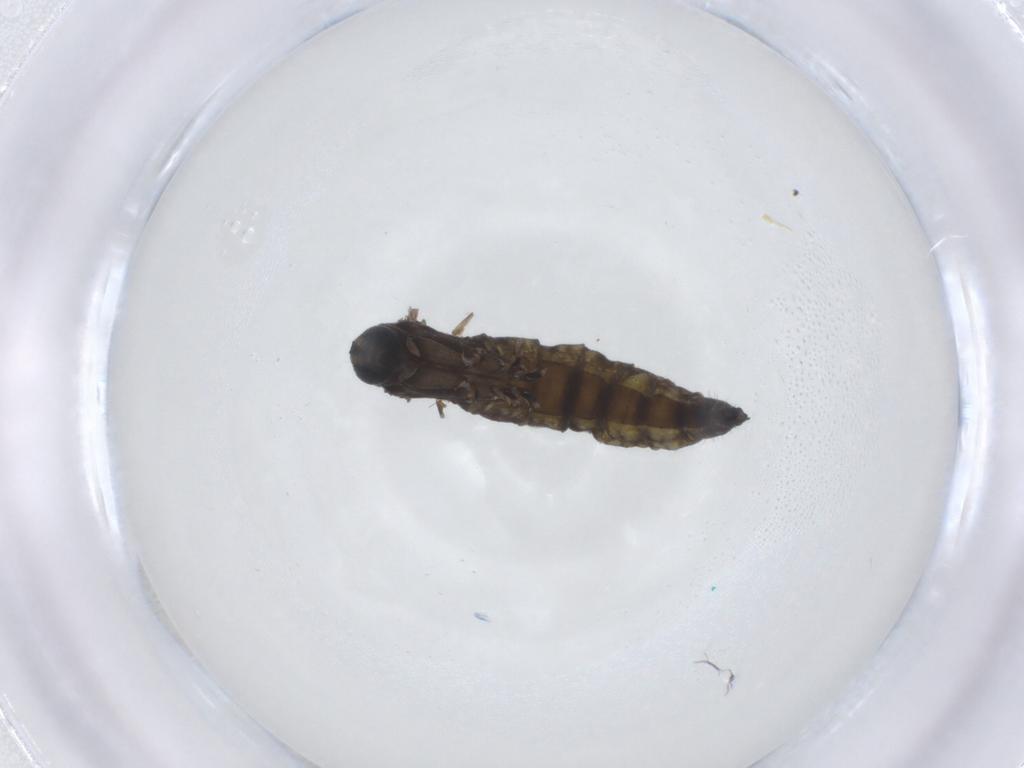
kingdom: Animalia
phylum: Arthropoda
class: Insecta
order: Diptera
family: Sciaridae
